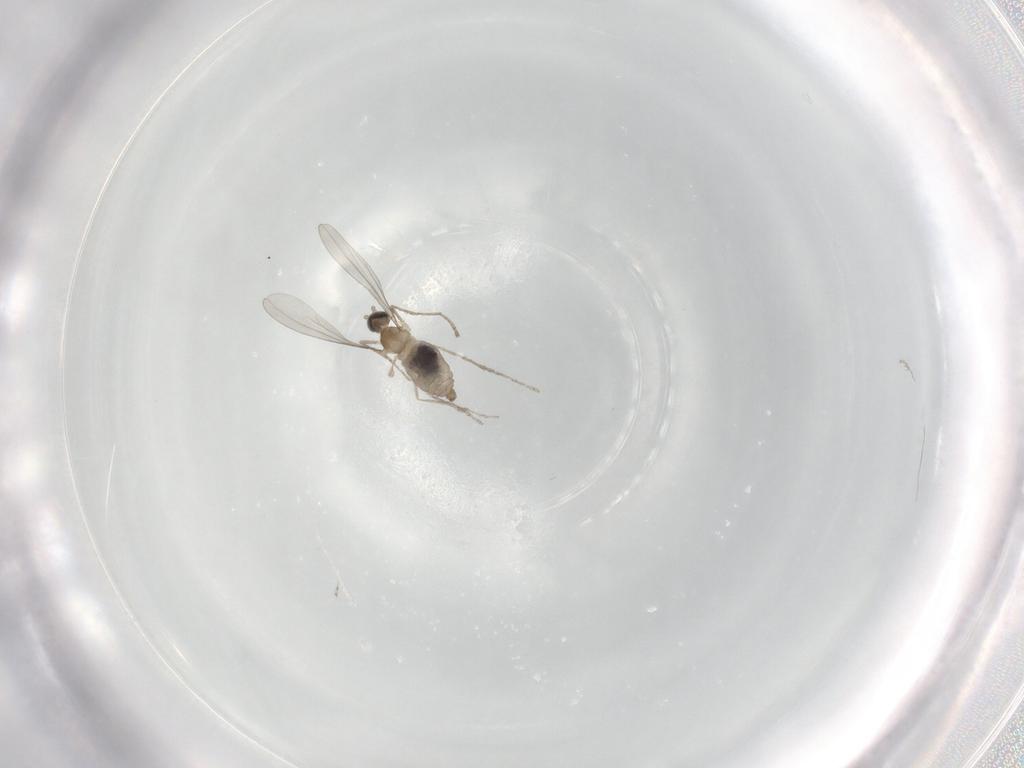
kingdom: Animalia
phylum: Arthropoda
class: Insecta
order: Diptera
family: Cecidomyiidae
